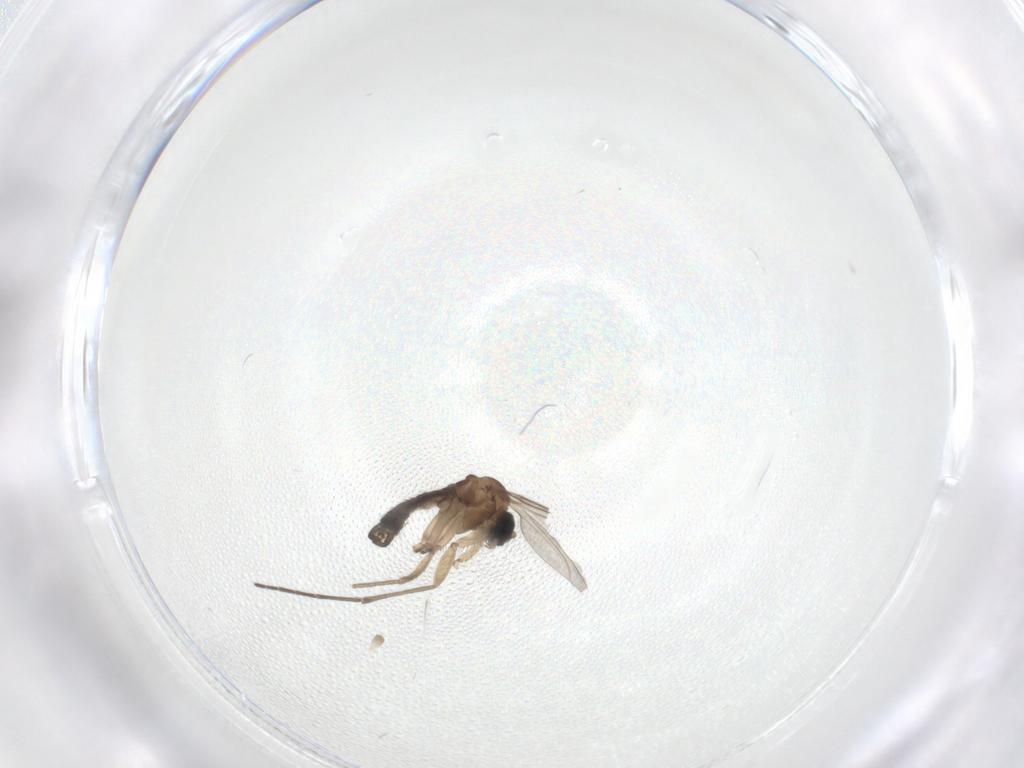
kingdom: Animalia
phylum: Arthropoda
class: Insecta
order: Diptera
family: Sciaridae
